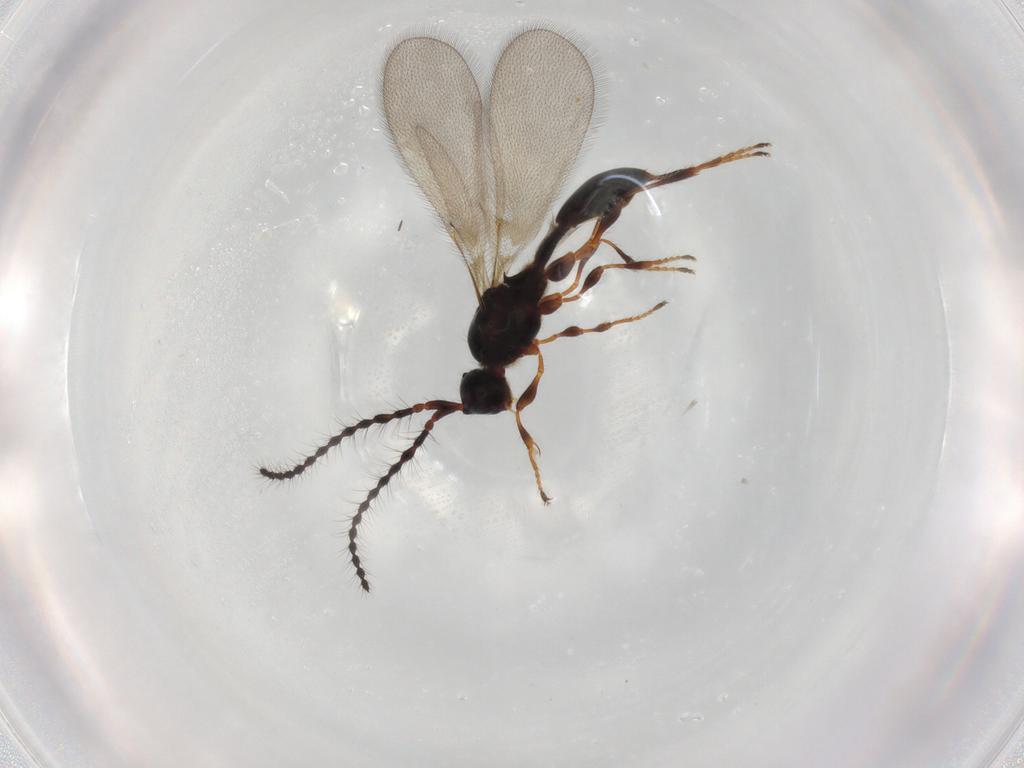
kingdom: Animalia
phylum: Arthropoda
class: Insecta
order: Hymenoptera
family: Diapriidae
